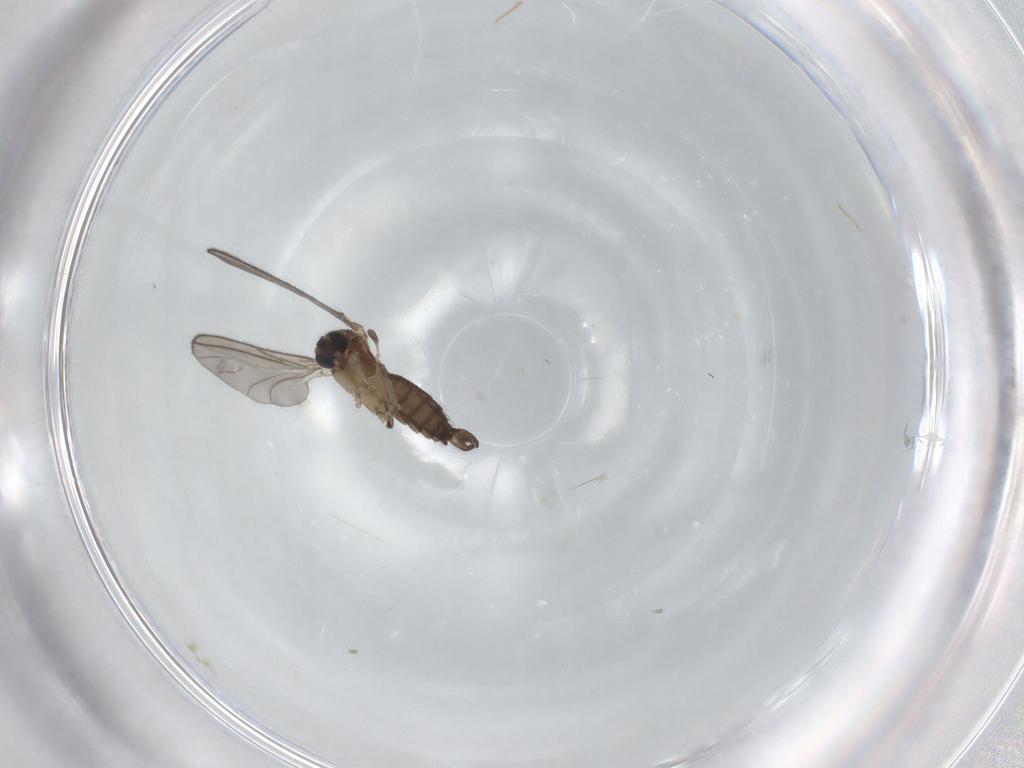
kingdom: Animalia
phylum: Arthropoda
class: Insecta
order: Diptera
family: Sciaridae
